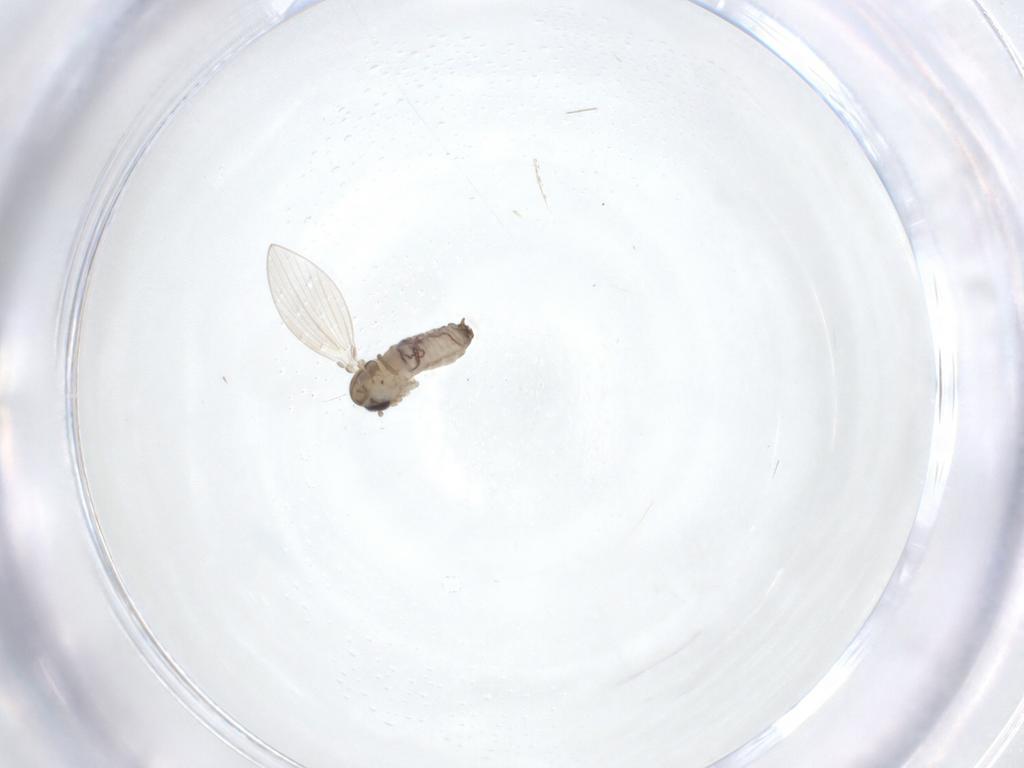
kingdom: Animalia
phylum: Arthropoda
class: Insecta
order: Diptera
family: Psychodidae
